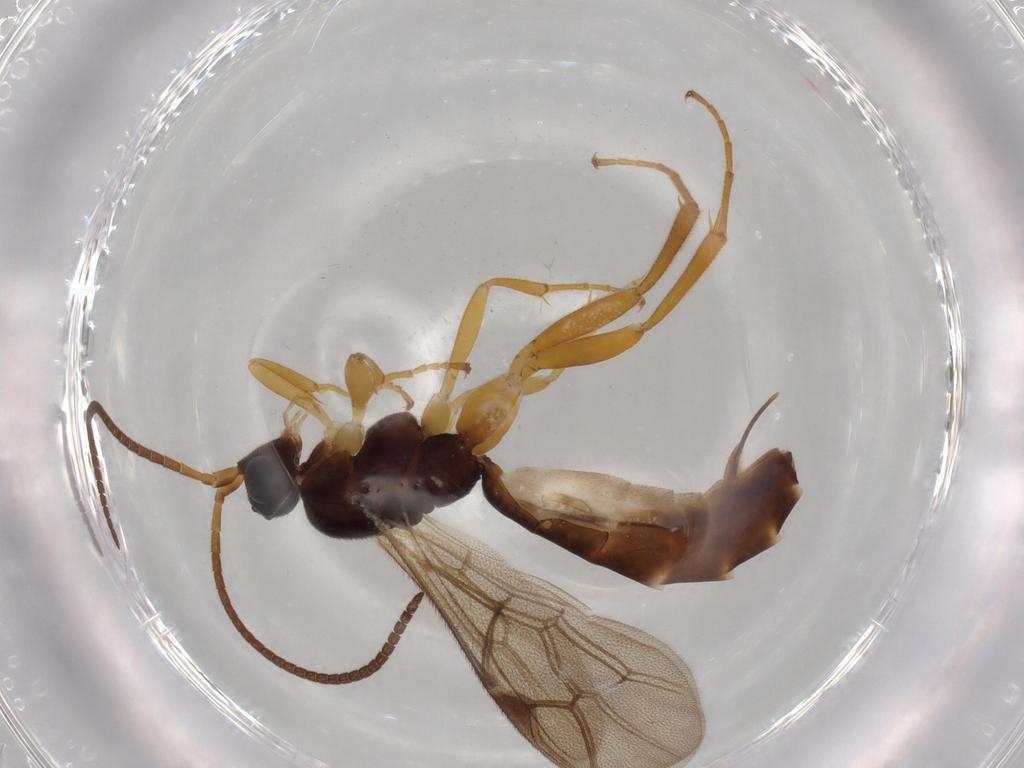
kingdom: Animalia
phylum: Arthropoda
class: Insecta
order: Hymenoptera
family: Ichneumonidae
